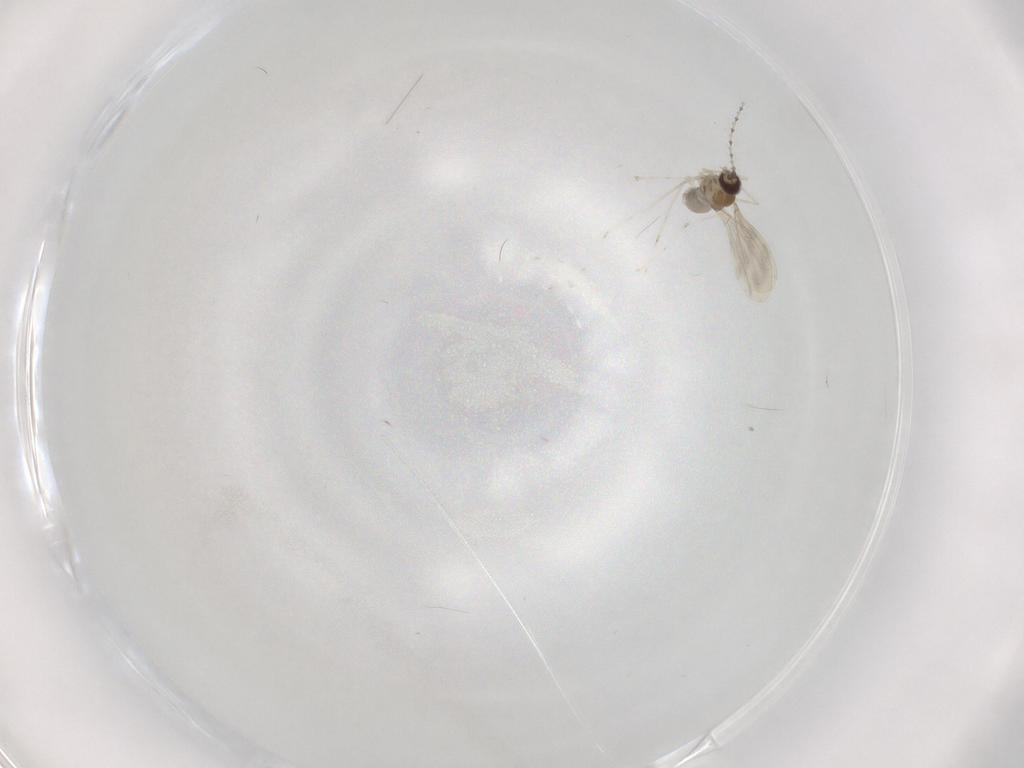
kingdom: Animalia
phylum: Arthropoda
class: Insecta
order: Diptera
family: Cecidomyiidae
